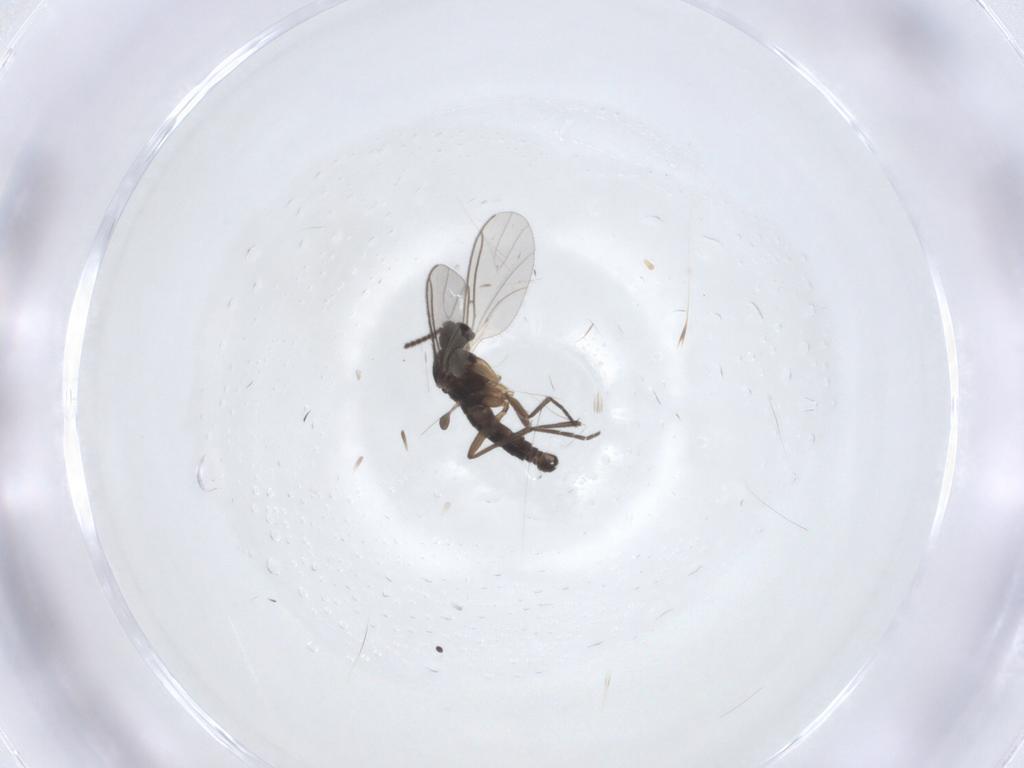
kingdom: Animalia
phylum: Arthropoda
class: Insecta
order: Diptera
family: Sciaridae
